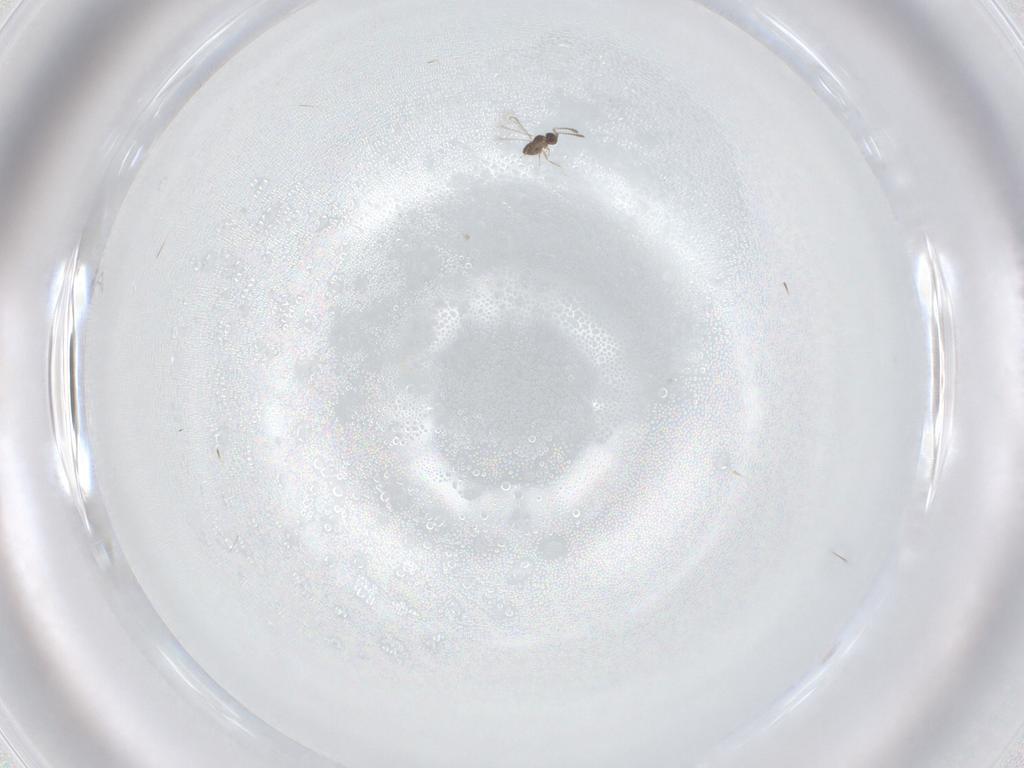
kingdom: Animalia
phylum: Arthropoda
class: Insecta
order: Hymenoptera
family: Mymaridae
